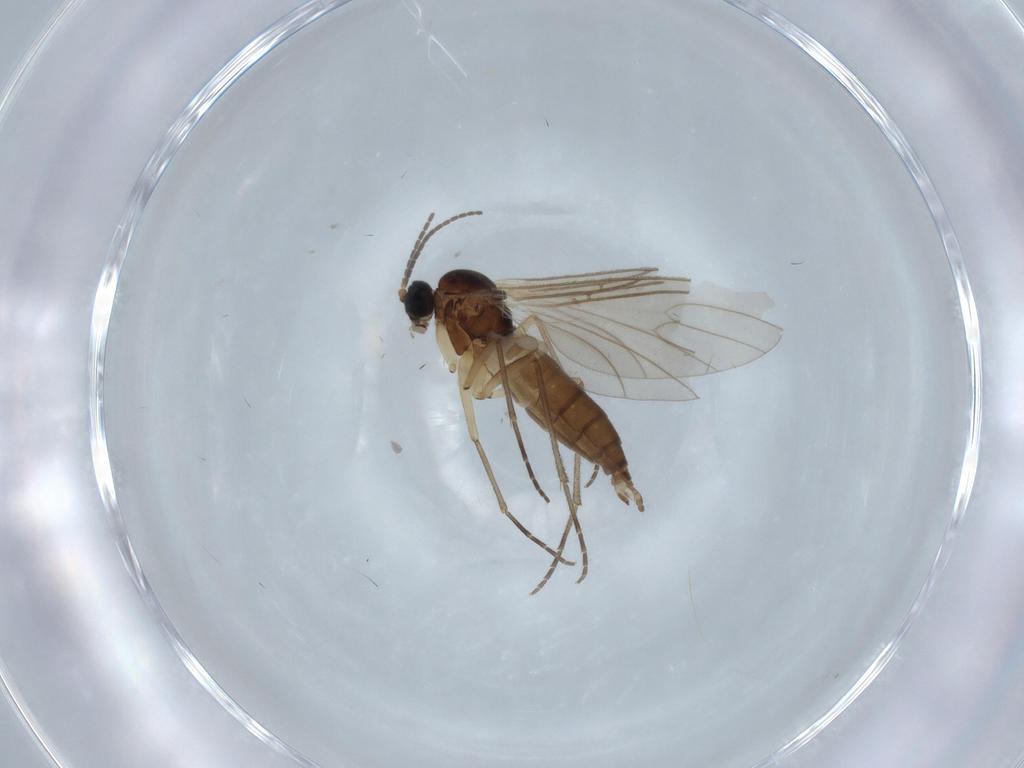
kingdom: Animalia
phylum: Arthropoda
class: Insecta
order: Diptera
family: Sciaridae
